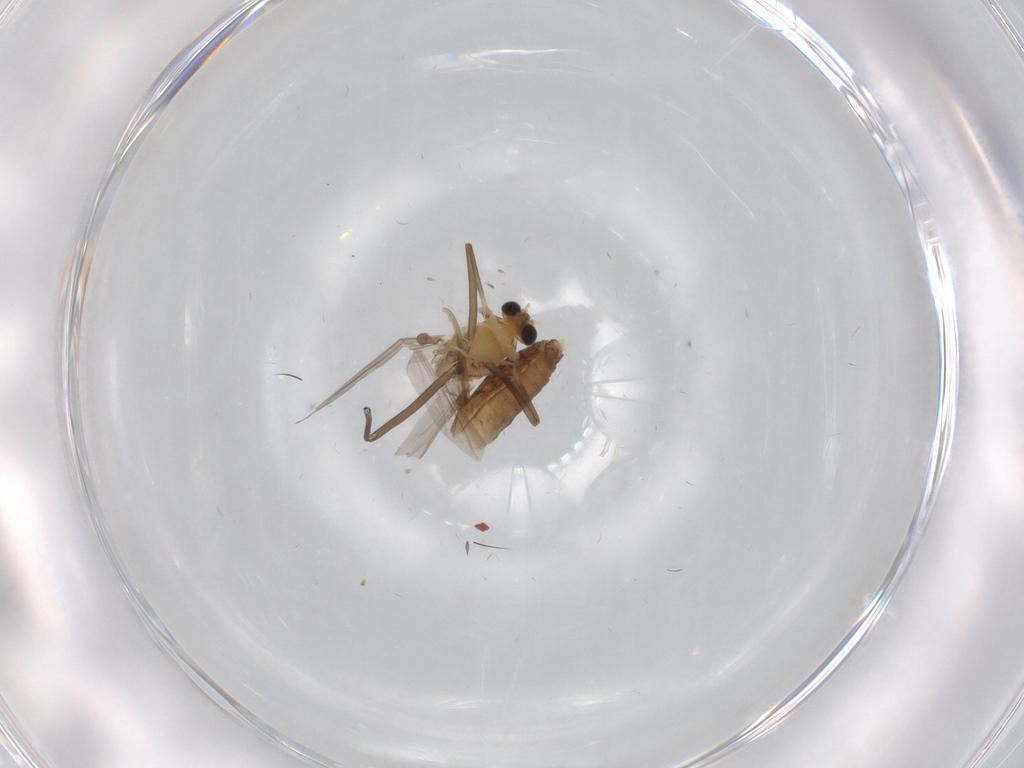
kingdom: Animalia
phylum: Arthropoda
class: Insecta
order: Diptera
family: Chironomidae
